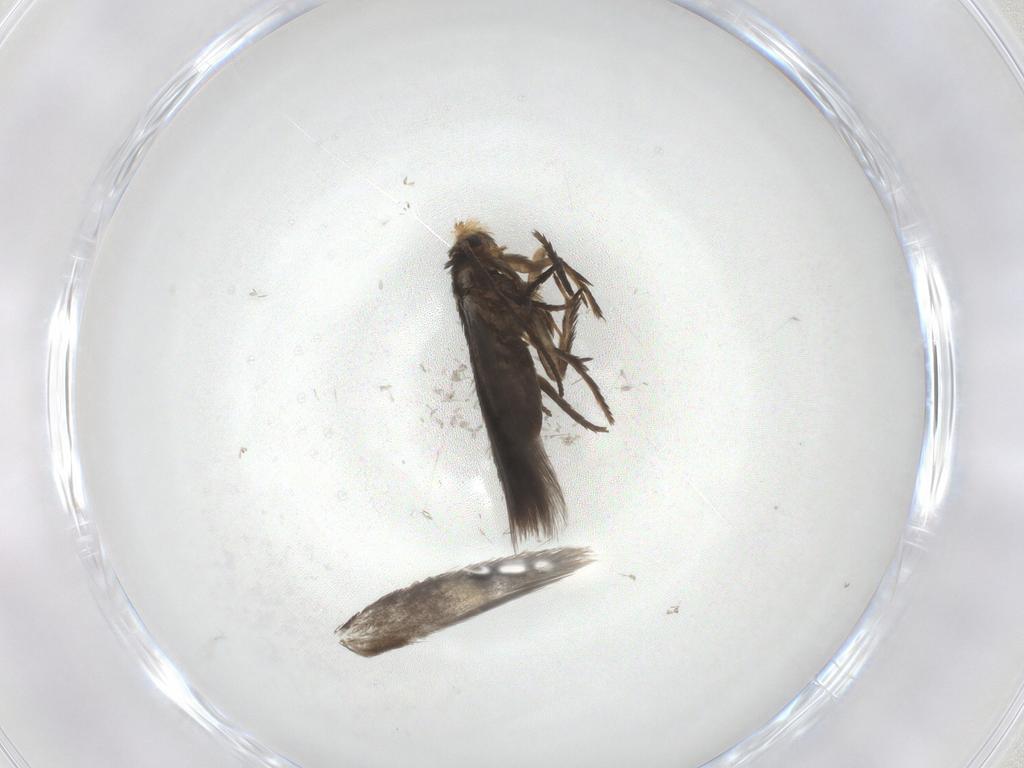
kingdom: Animalia
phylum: Arthropoda
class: Insecta
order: Lepidoptera
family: Nepticulidae
